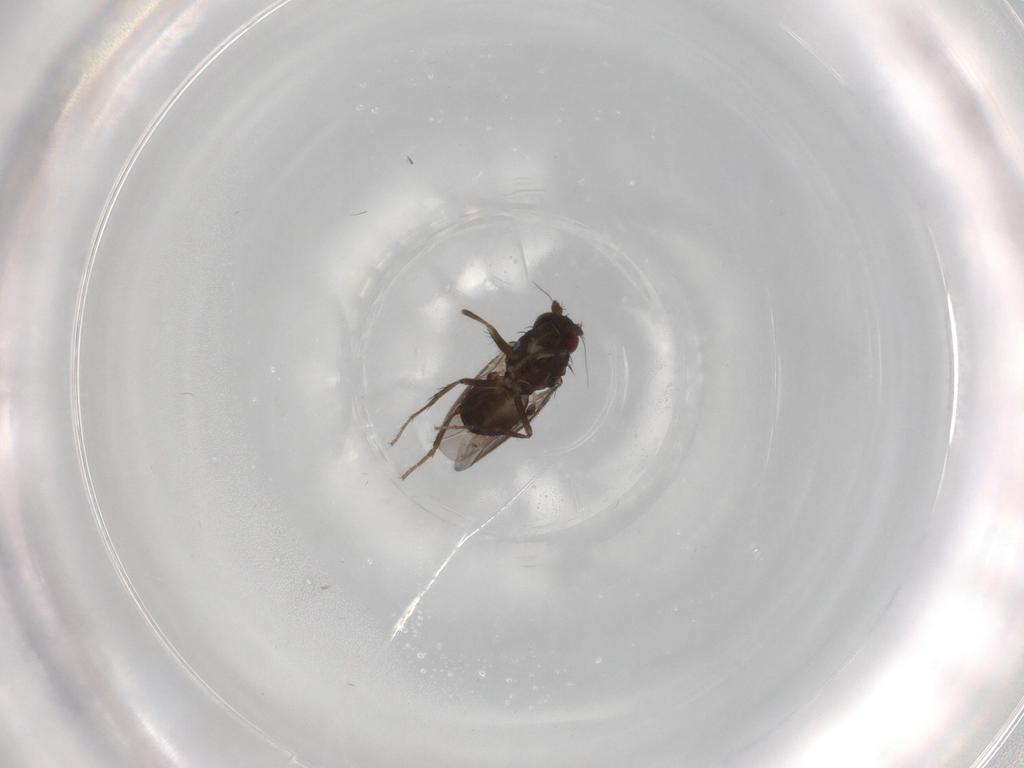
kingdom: Animalia
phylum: Arthropoda
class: Insecta
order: Diptera
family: Sphaeroceridae
